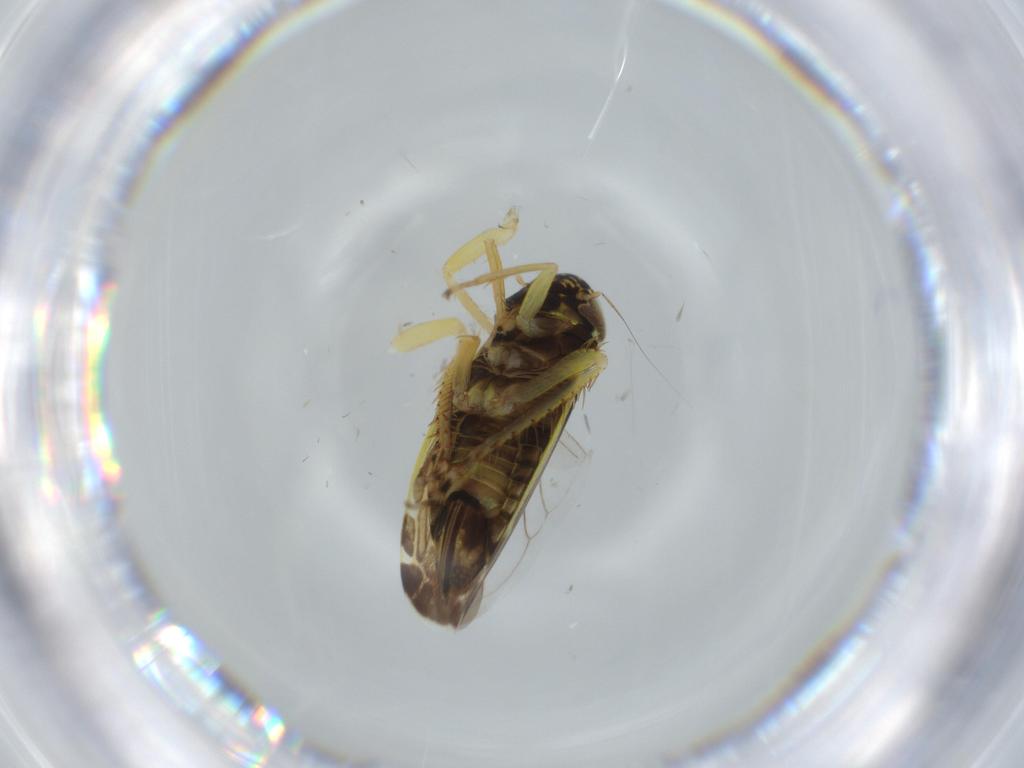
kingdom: Animalia
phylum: Arthropoda
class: Insecta
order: Hemiptera
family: Cicadellidae
